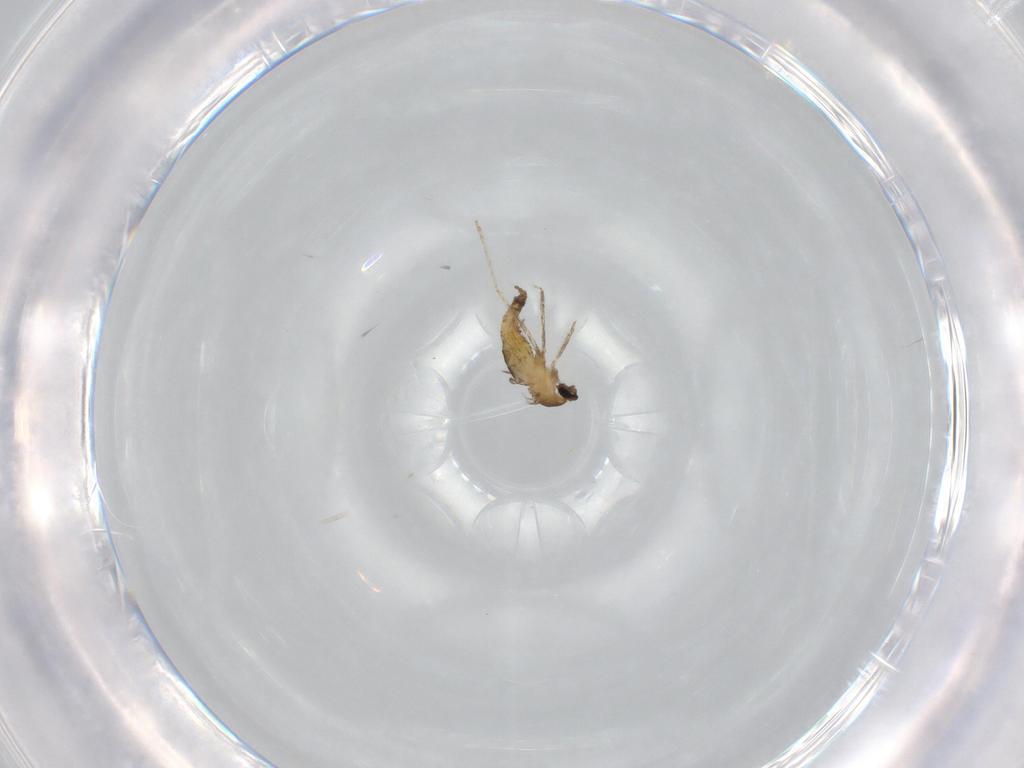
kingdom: Animalia
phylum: Arthropoda
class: Insecta
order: Diptera
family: Cecidomyiidae
